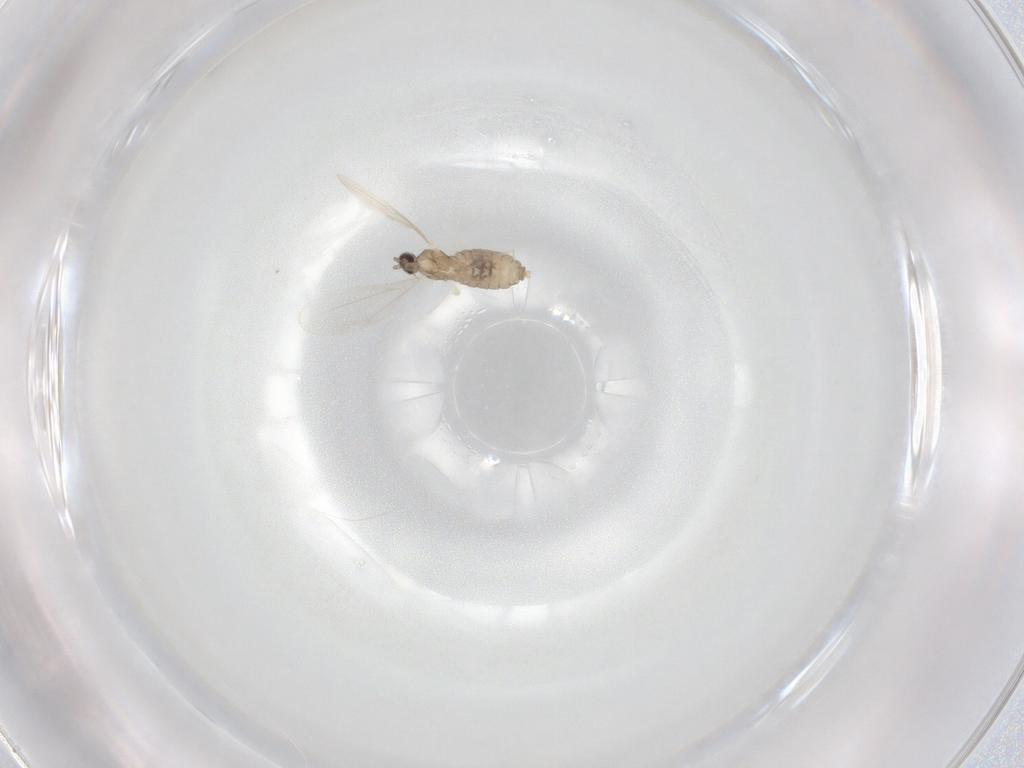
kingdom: Animalia
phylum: Arthropoda
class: Insecta
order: Diptera
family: Cecidomyiidae
